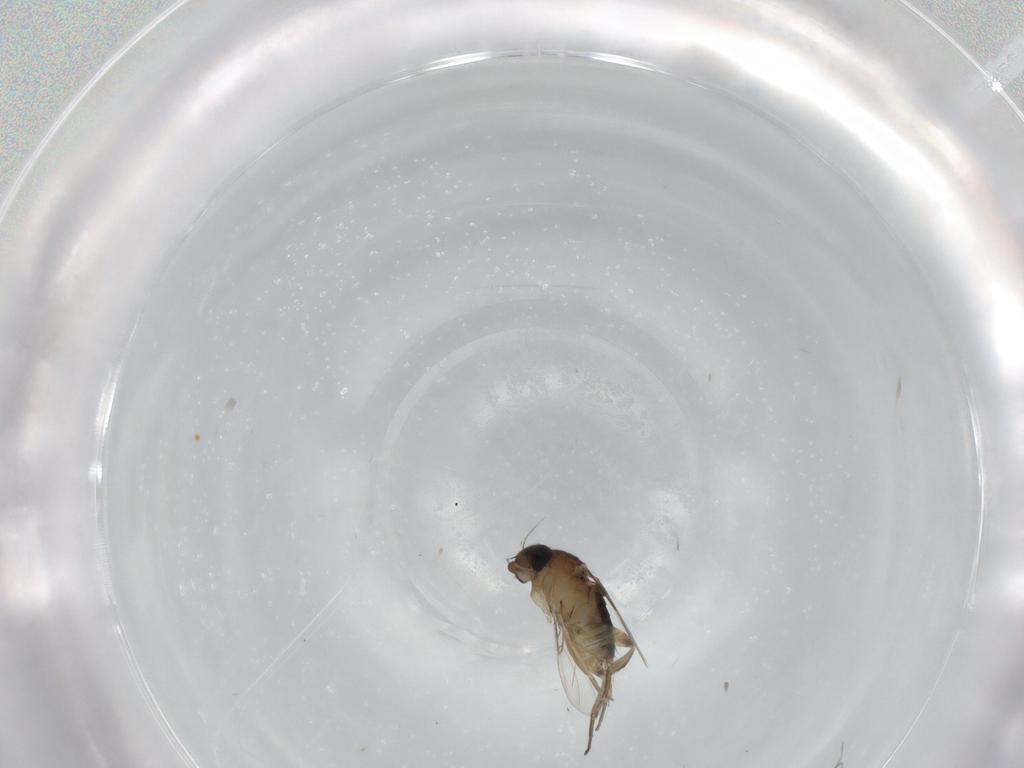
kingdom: Animalia
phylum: Arthropoda
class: Insecta
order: Diptera
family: Phoridae
